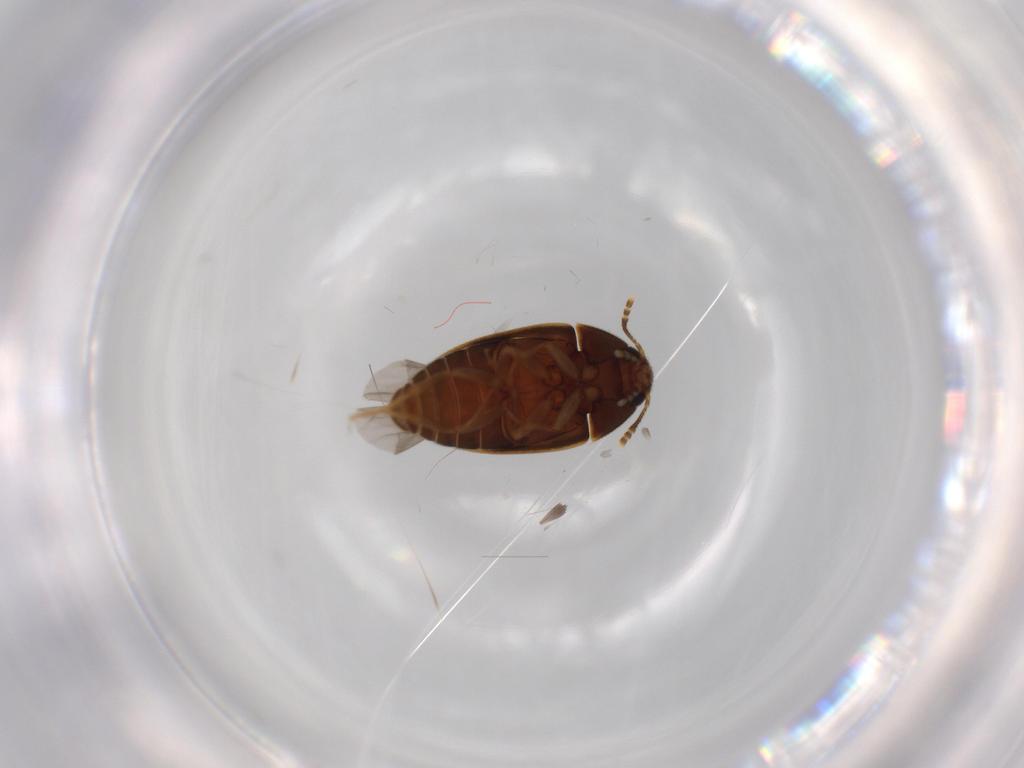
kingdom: Animalia
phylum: Arthropoda
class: Insecta
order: Coleoptera
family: Mycetophagidae
